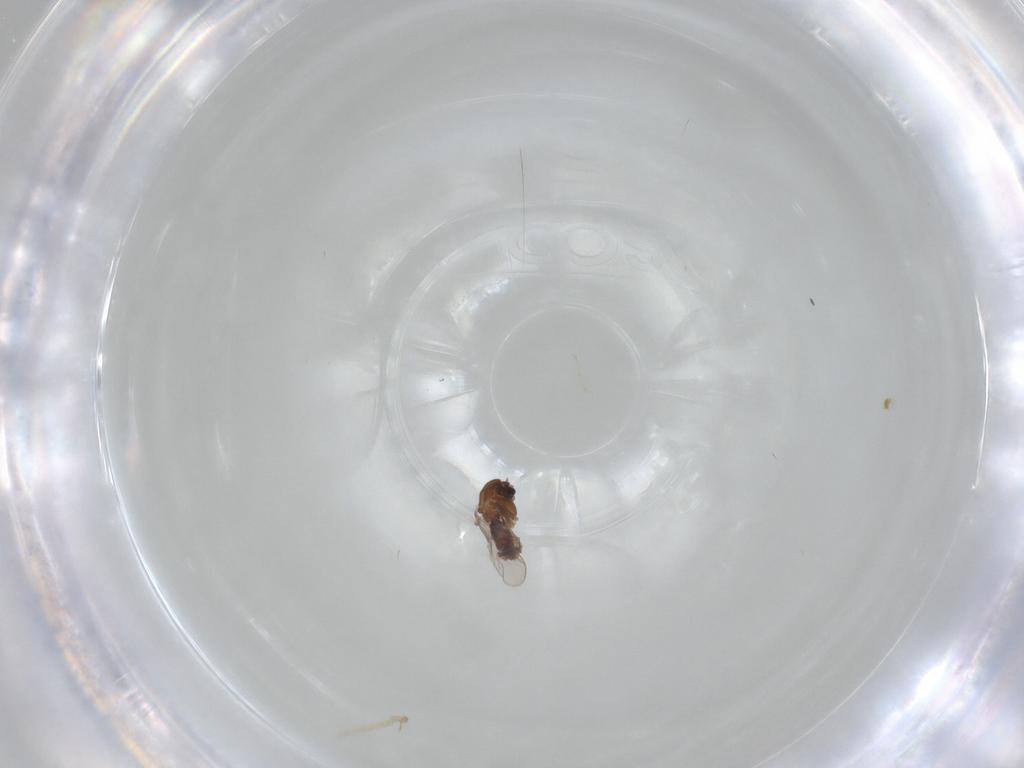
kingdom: Animalia
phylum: Arthropoda
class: Insecta
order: Diptera
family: Chironomidae
